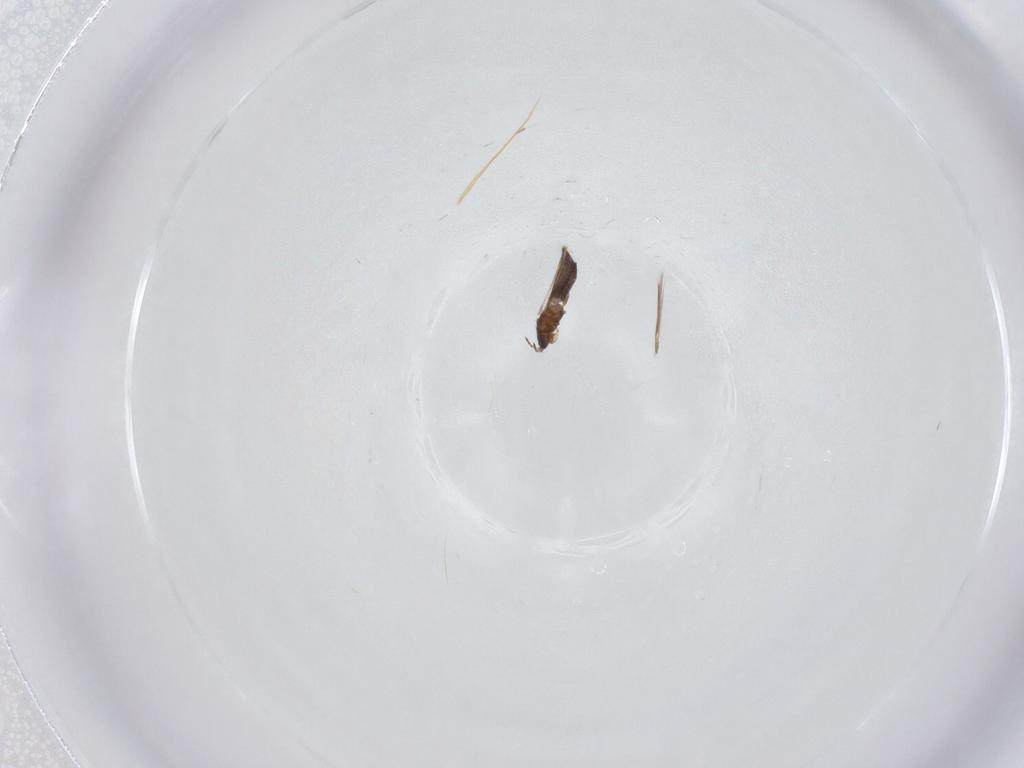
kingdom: Animalia
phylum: Arthropoda
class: Insecta
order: Thysanoptera
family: Thripidae
